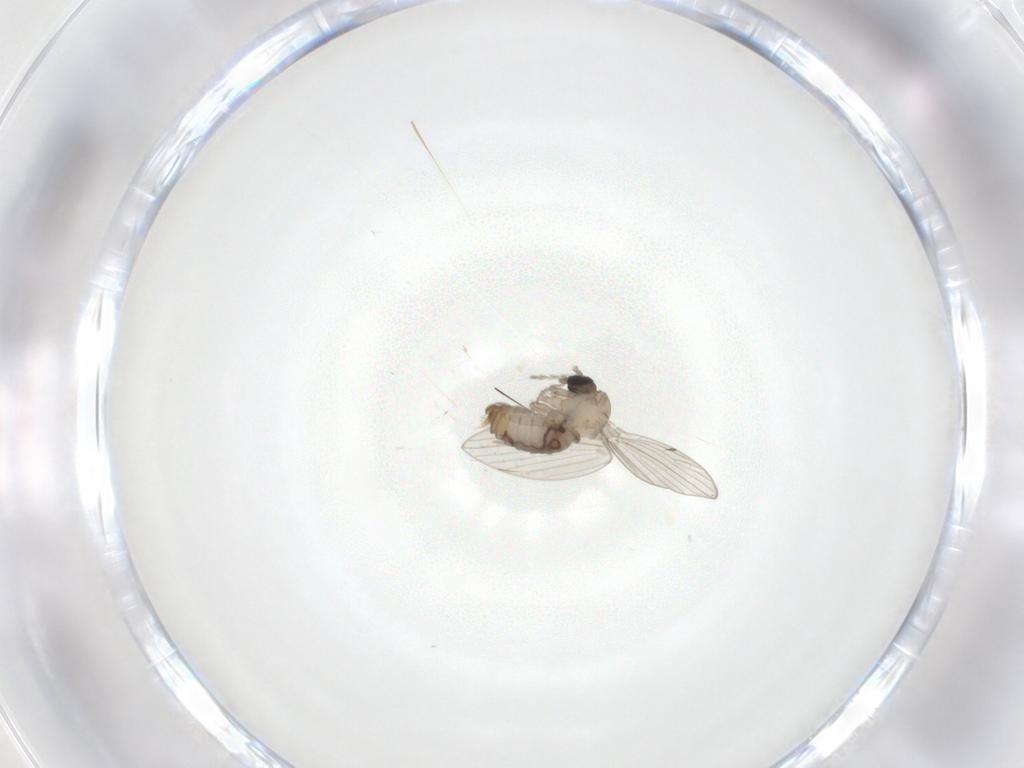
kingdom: Animalia
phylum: Arthropoda
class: Insecta
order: Diptera
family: Psychodidae
